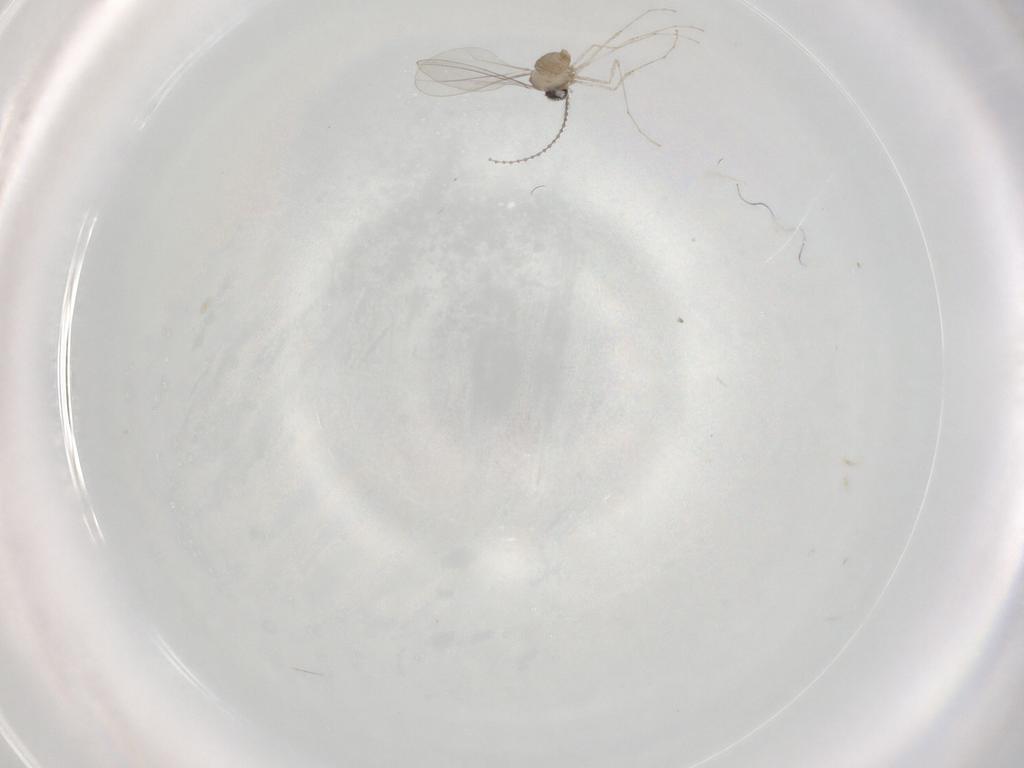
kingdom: Animalia
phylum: Arthropoda
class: Insecta
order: Diptera
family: Cecidomyiidae
